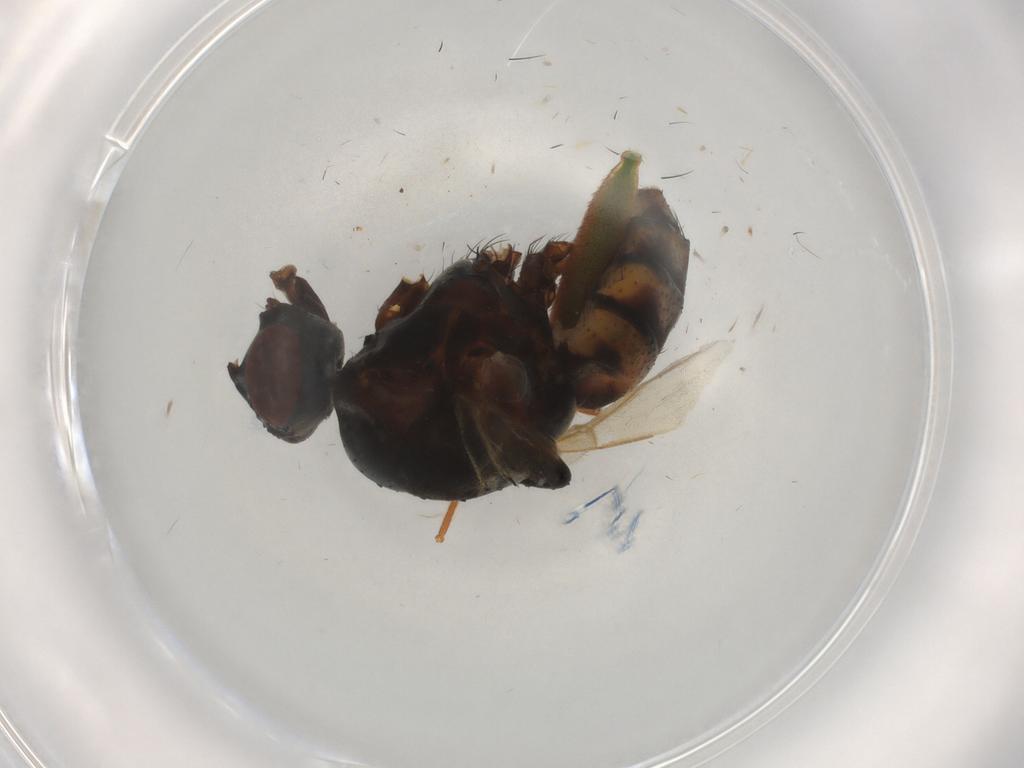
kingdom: Animalia
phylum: Arthropoda
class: Insecta
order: Diptera
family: Anthomyiidae
